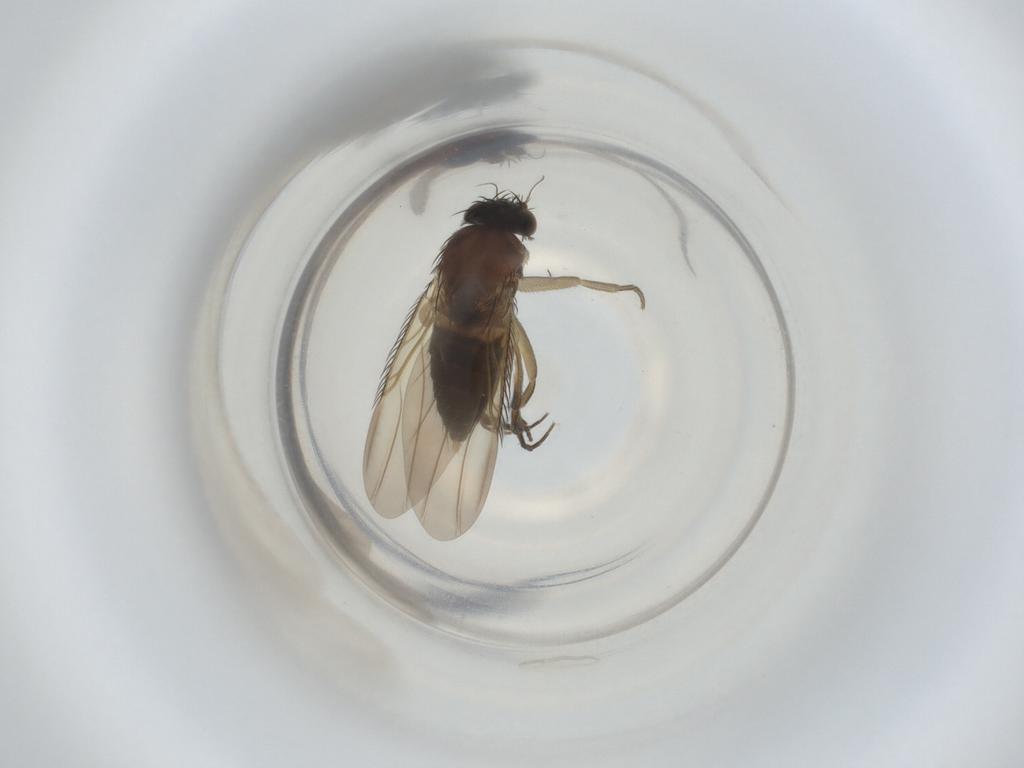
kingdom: Animalia
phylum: Arthropoda
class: Insecta
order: Diptera
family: Phoridae
